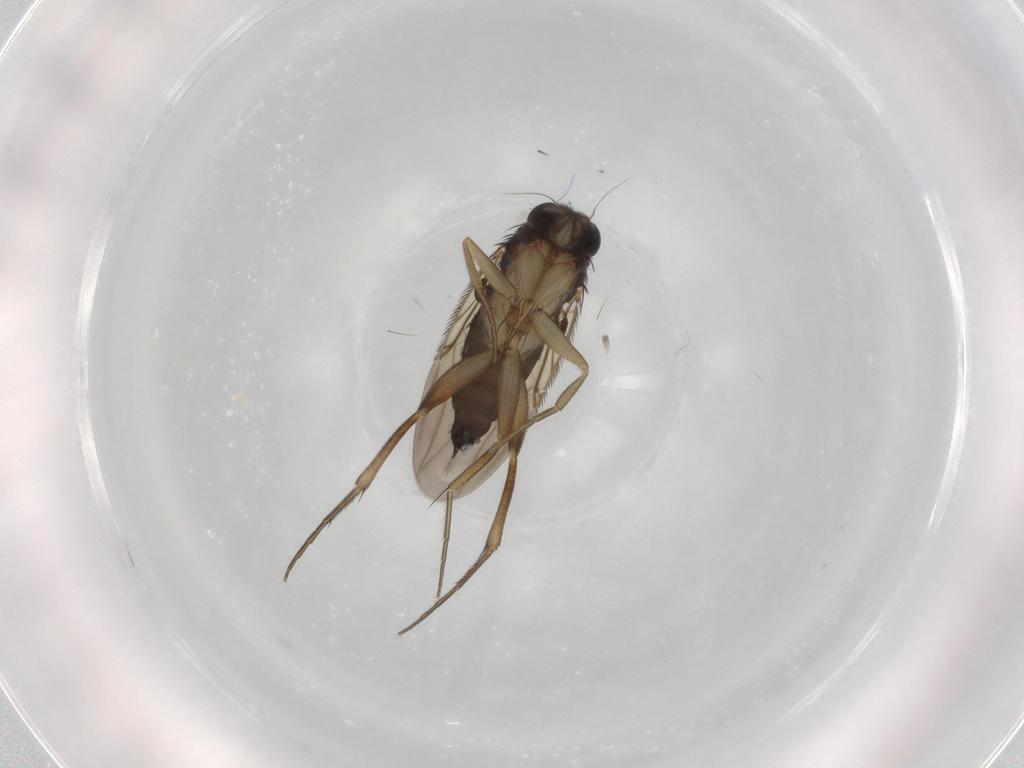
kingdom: Animalia
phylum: Arthropoda
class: Insecta
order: Diptera
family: Phoridae
